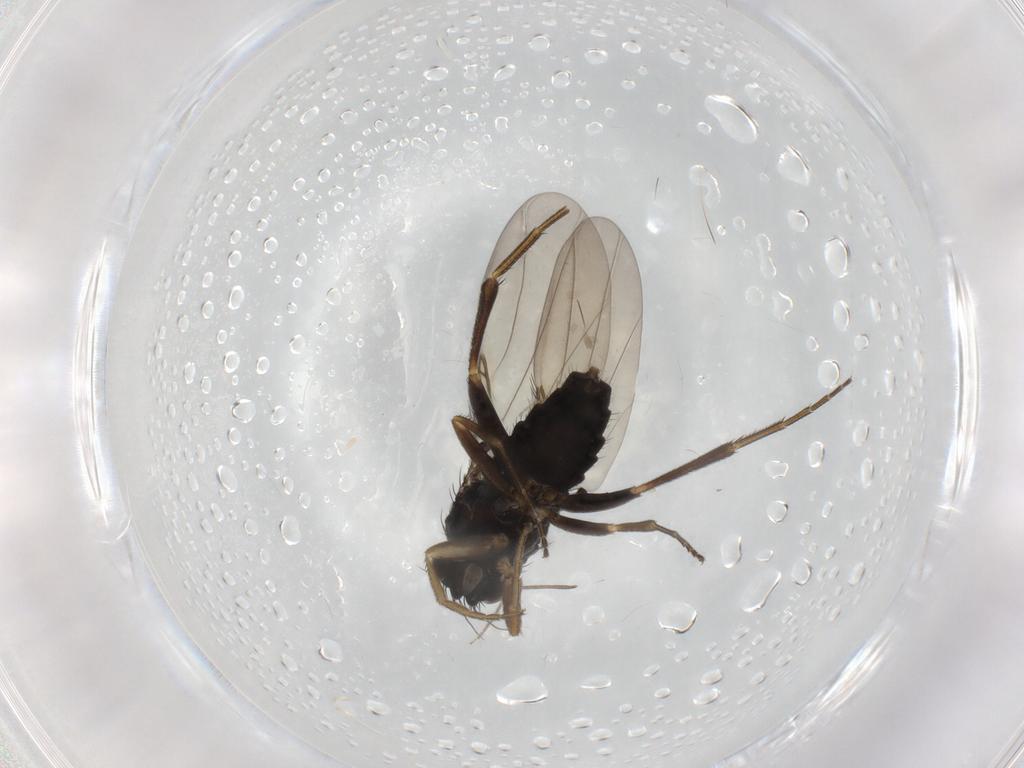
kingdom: Animalia
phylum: Arthropoda
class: Insecta
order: Diptera
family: Phoridae
